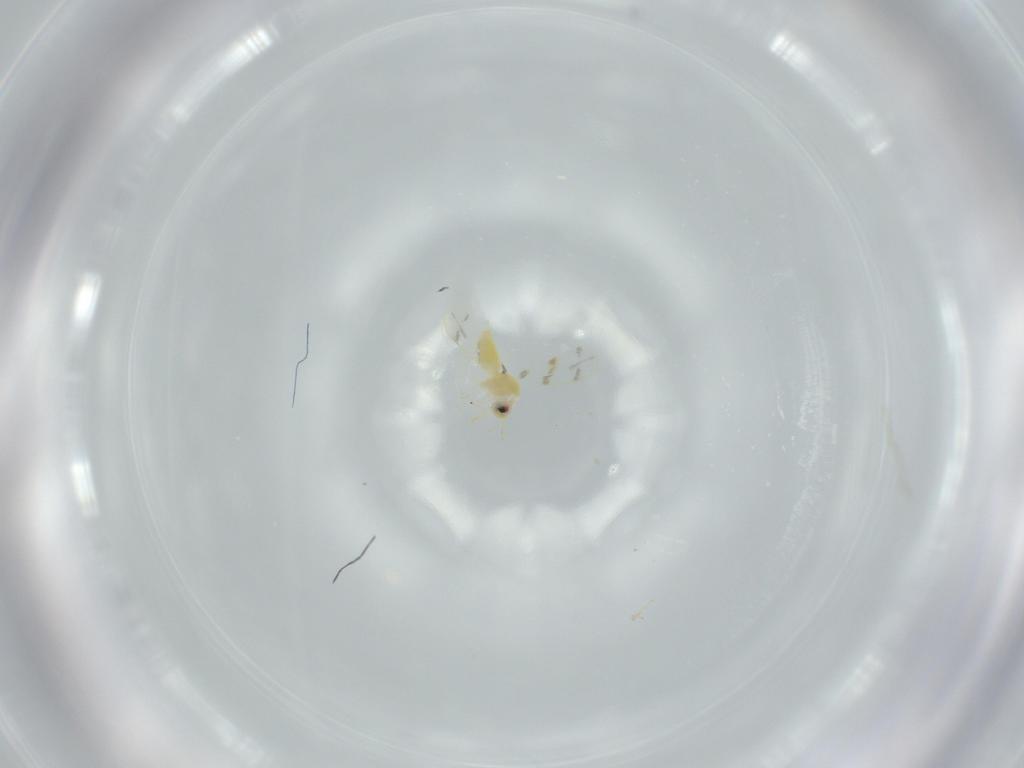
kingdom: Animalia
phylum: Arthropoda
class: Insecta
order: Hemiptera
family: Aleyrodidae
